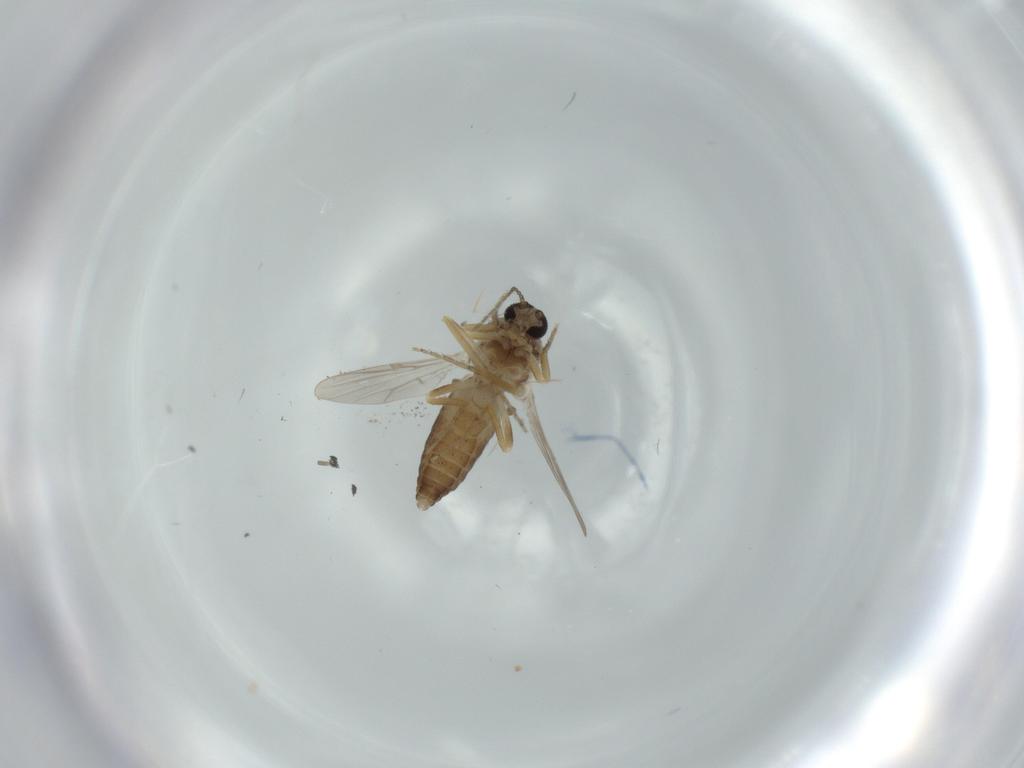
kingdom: Animalia
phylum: Arthropoda
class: Insecta
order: Diptera
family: Ceratopogonidae
